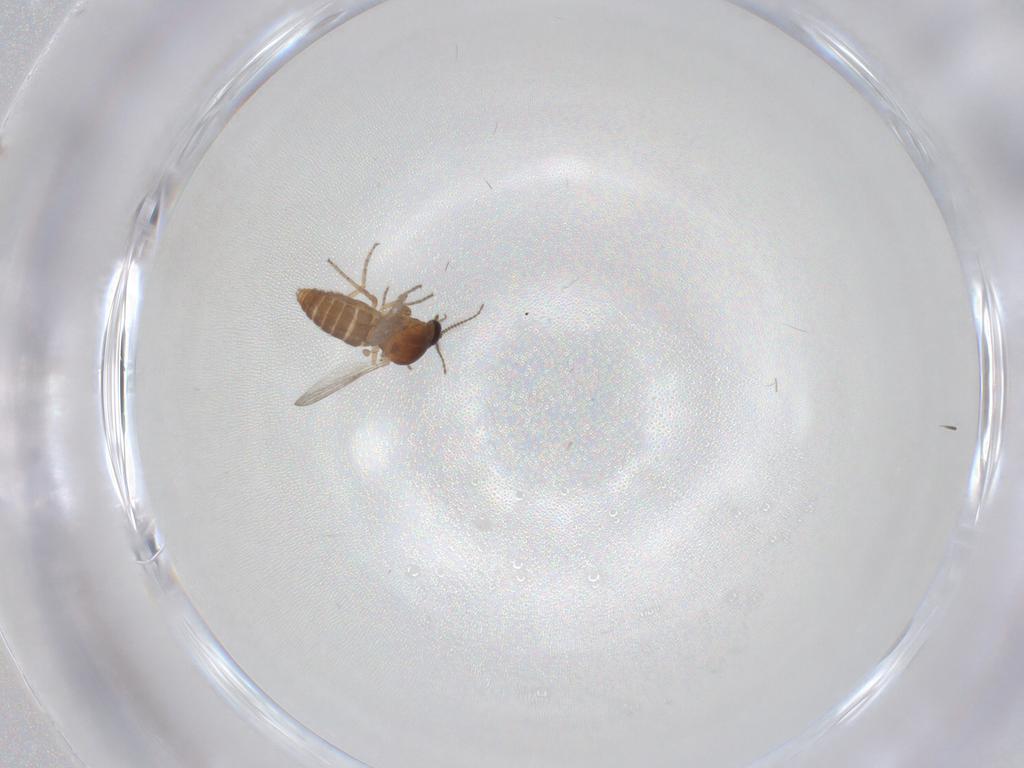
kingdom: Animalia
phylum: Arthropoda
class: Insecta
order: Diptera
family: Ceratopogonidae
